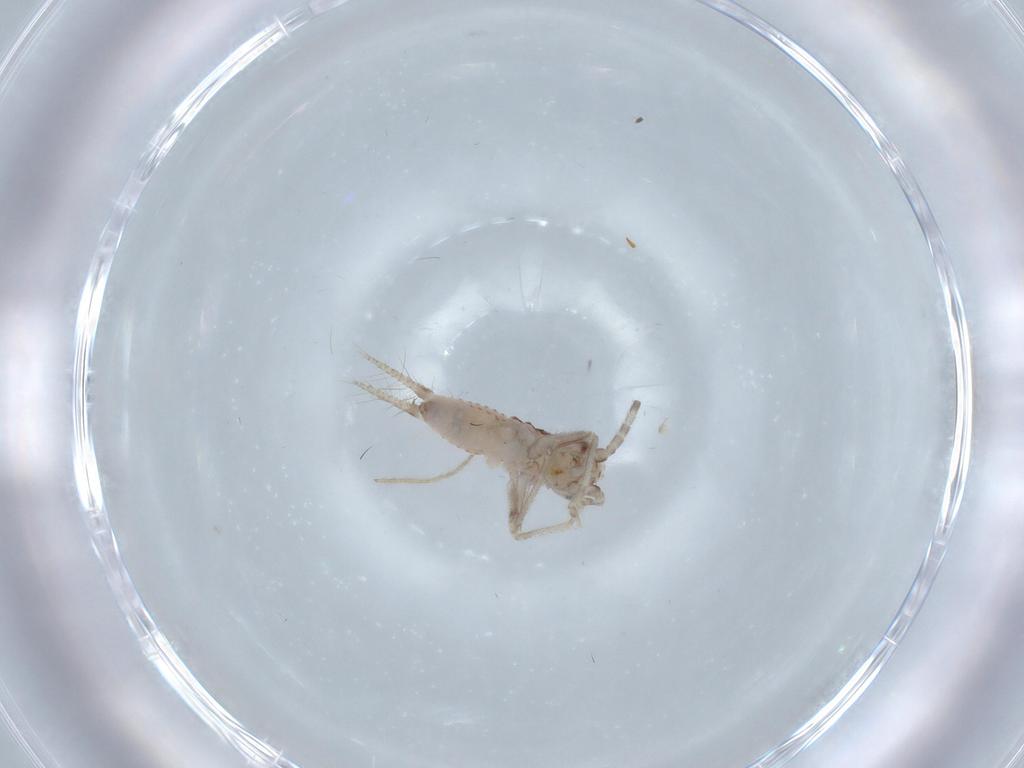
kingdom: Animalia
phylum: Arthropoda
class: Insecta
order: Orthoptera
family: Trigonidiidae
